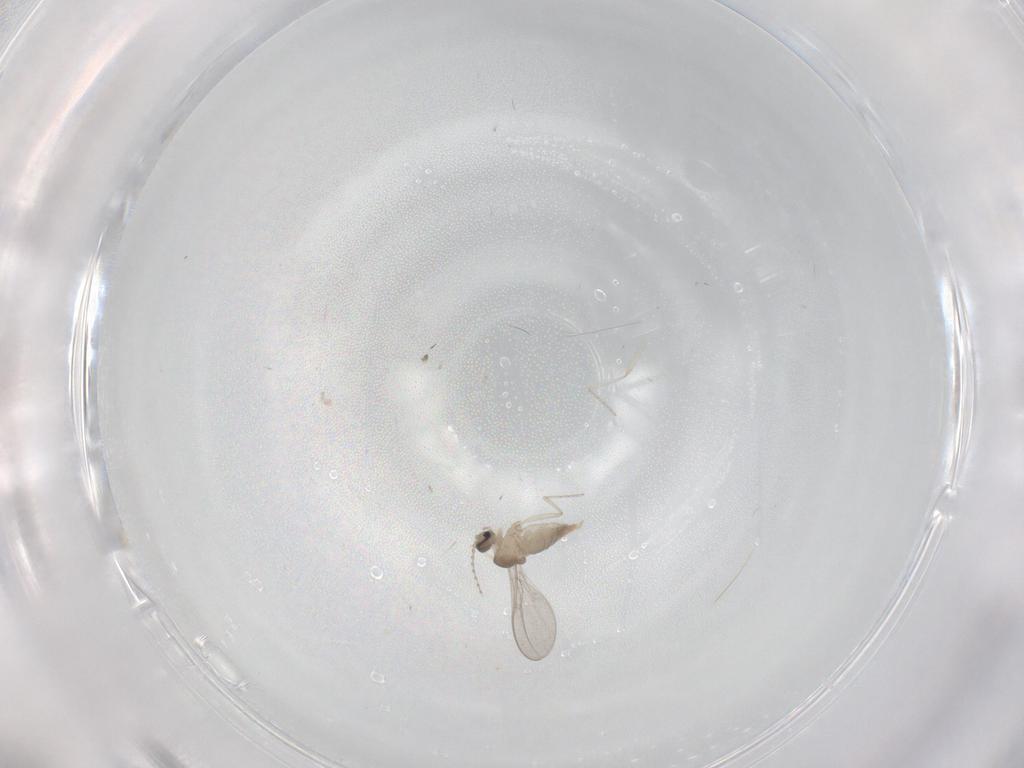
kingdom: Animalia
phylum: Arthropoda
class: Insecta
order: Diptera
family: Cecidomyiidae
